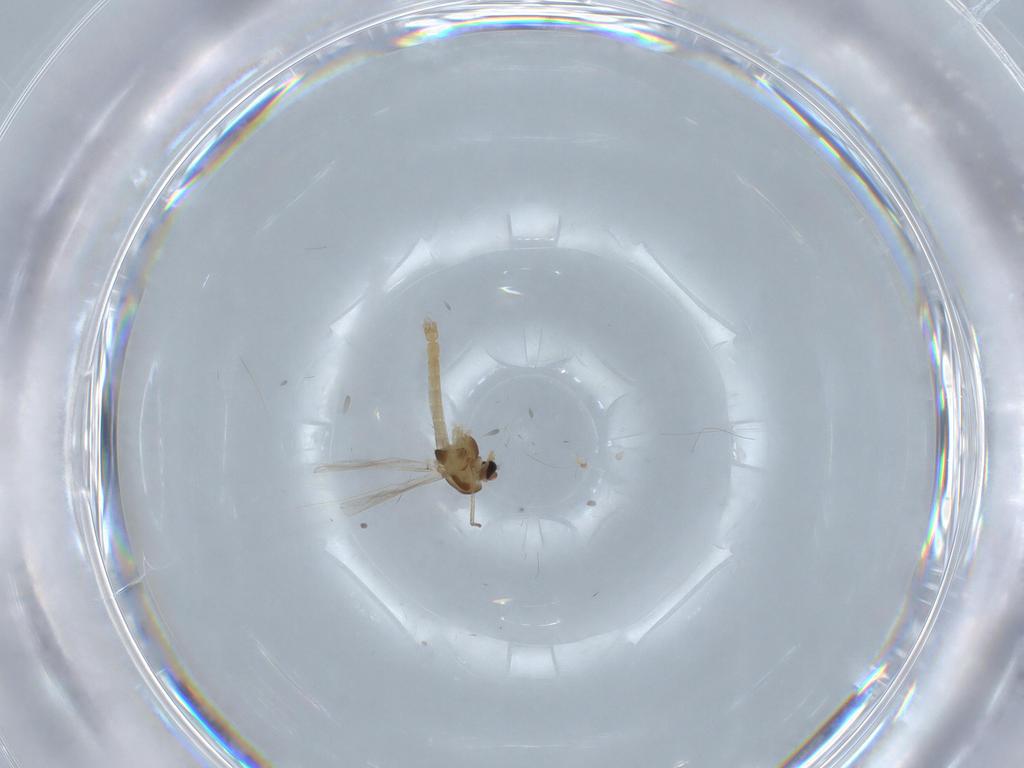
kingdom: Animalia
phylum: Arthropoda
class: Insecta
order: Diptera
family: Chironomidae
